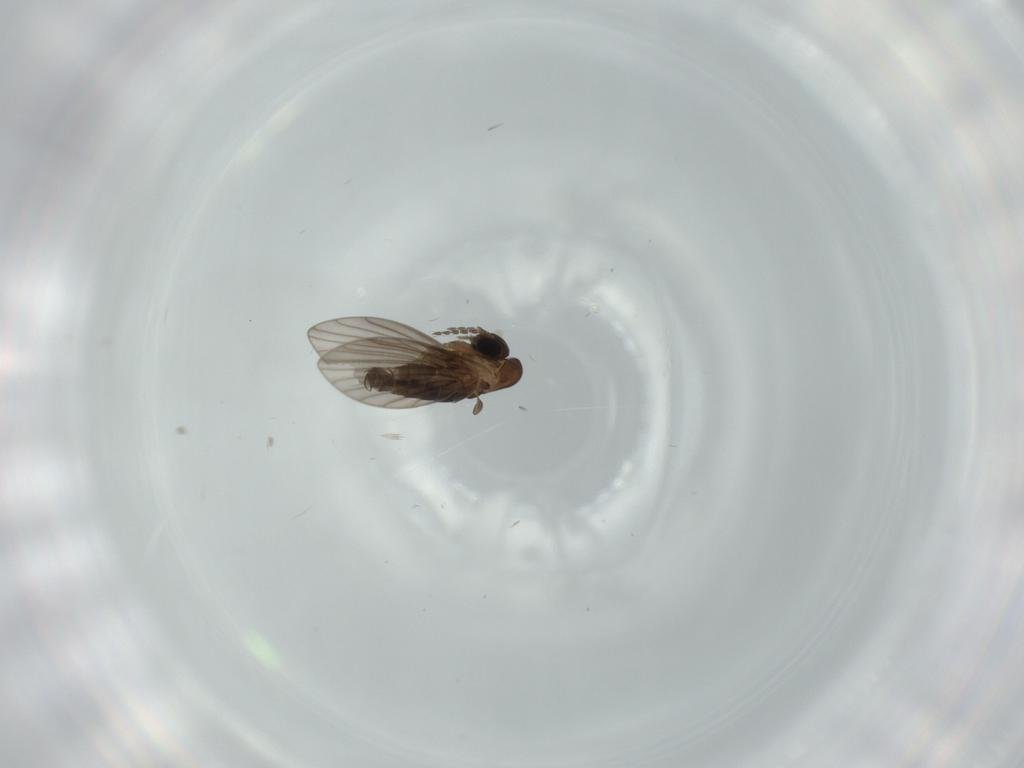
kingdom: Animalia
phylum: Arthropoda
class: Insecta
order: Diptera
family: Psychodidae
